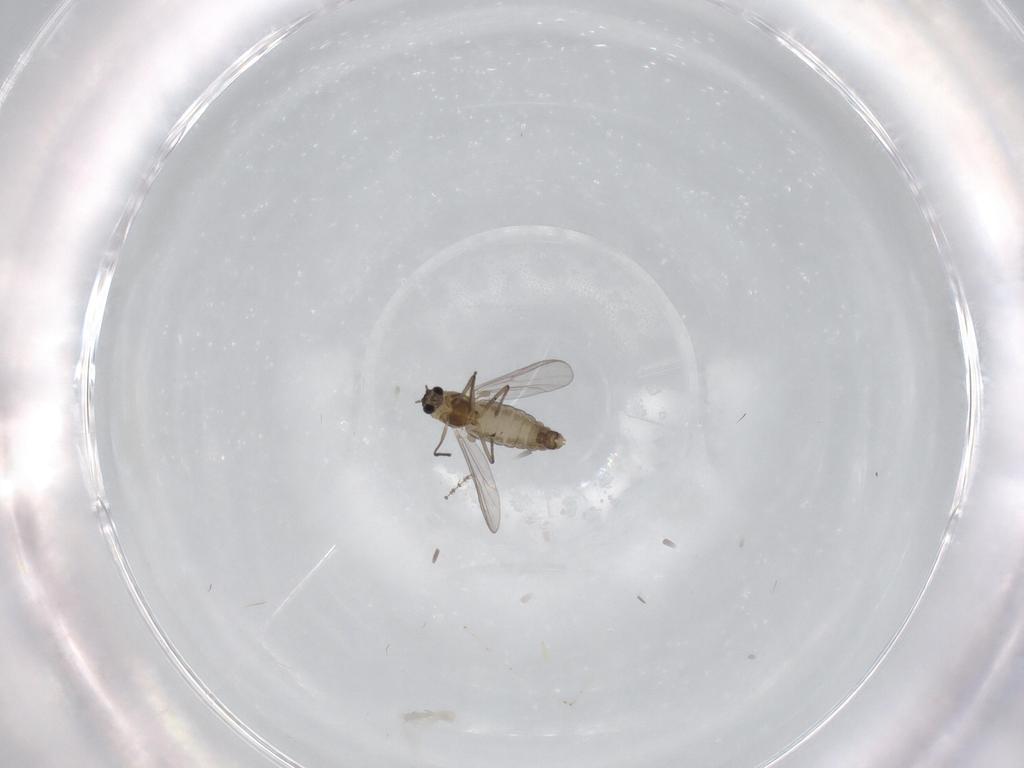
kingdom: Animalia
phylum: Arthropoda
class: Insecta
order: Diptera
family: Chironomidae
